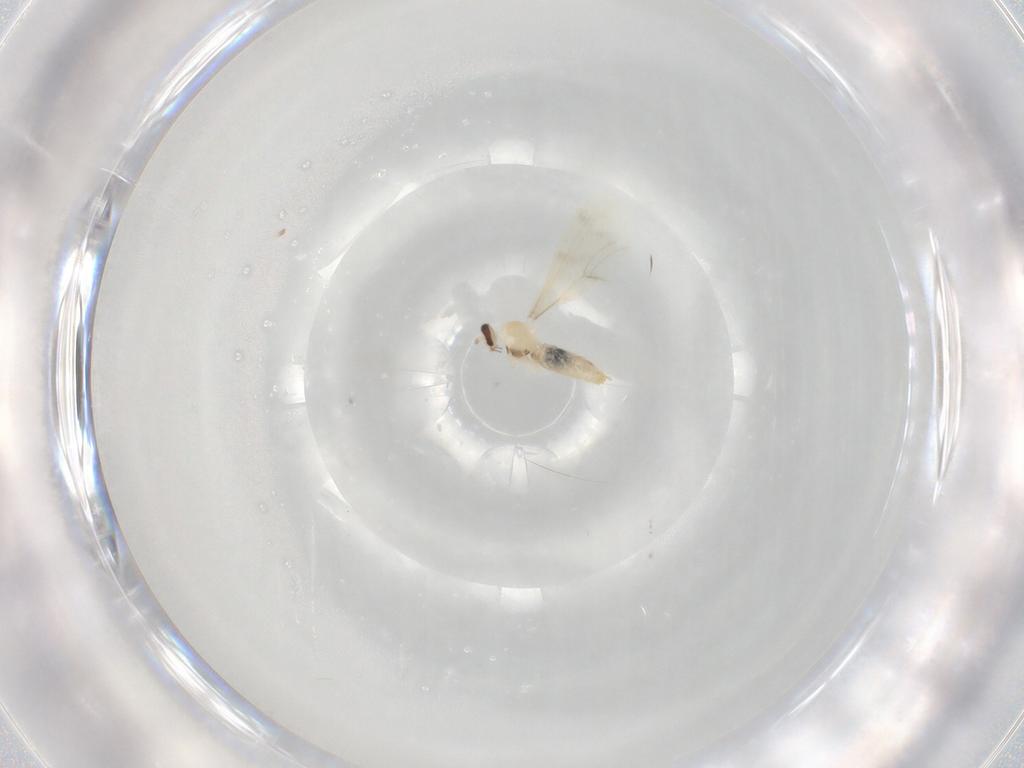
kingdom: Animalia
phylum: Arthropoda
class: Insecta
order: Diptera
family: Cecidomyiidae
